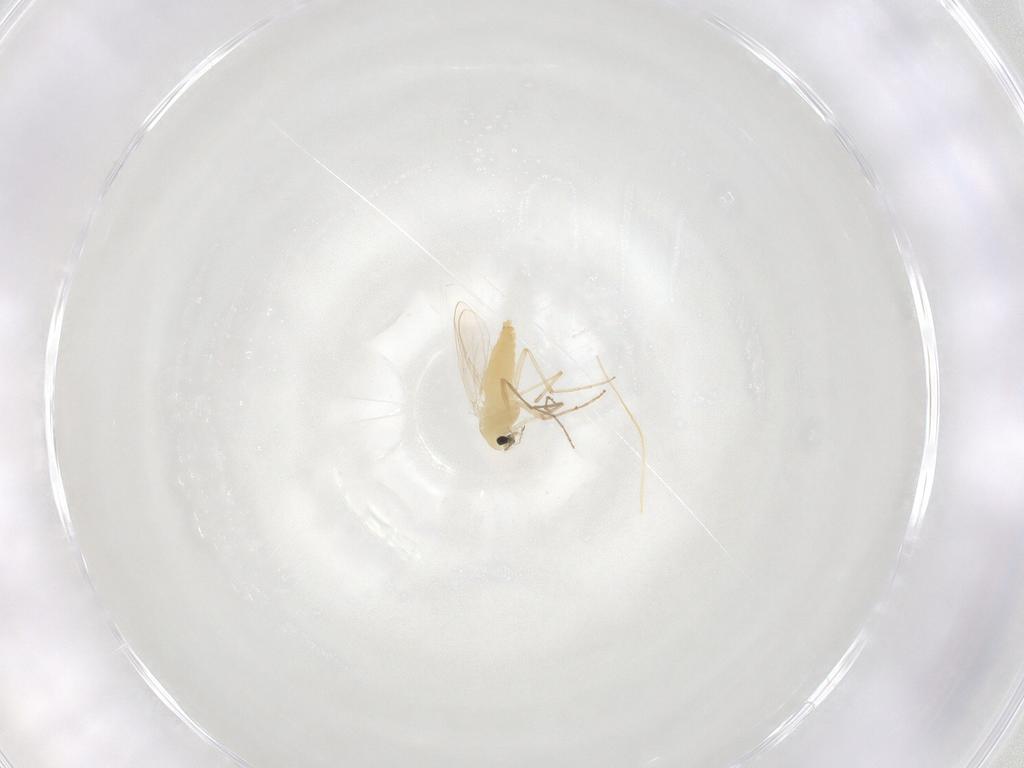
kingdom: Animalia
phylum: Arthropoda
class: Insecta
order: Diptera
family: Chironomidae
